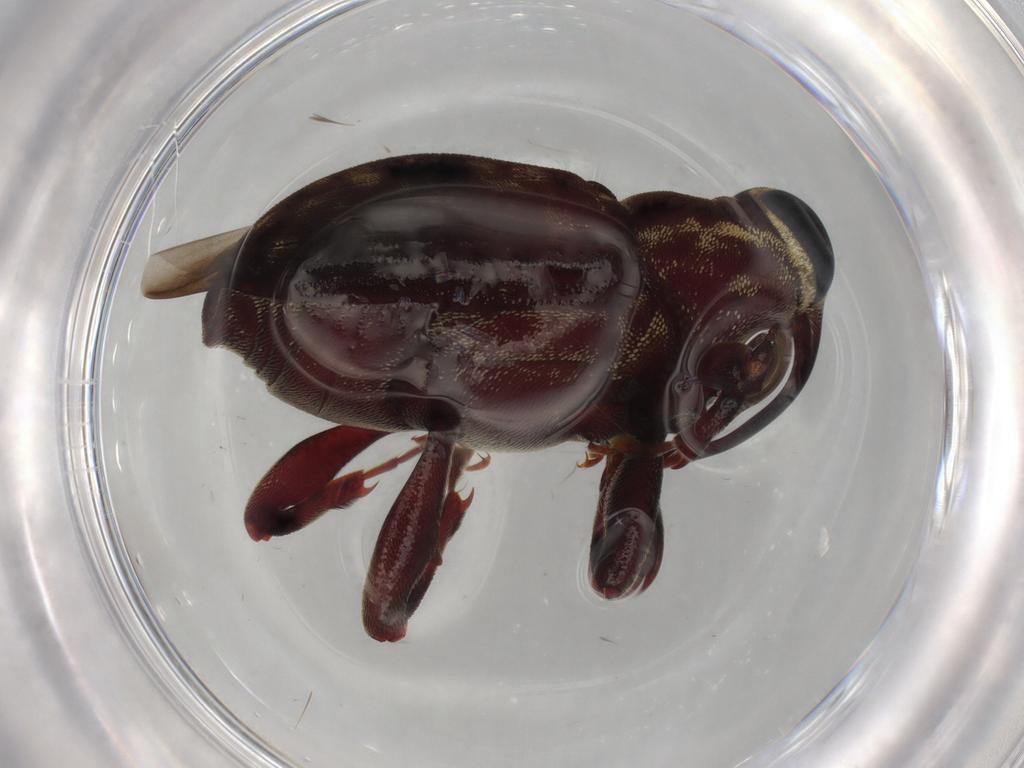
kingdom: Animalia
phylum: Arthropoda
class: Insecta
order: Coleoptera
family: Curculionidae
